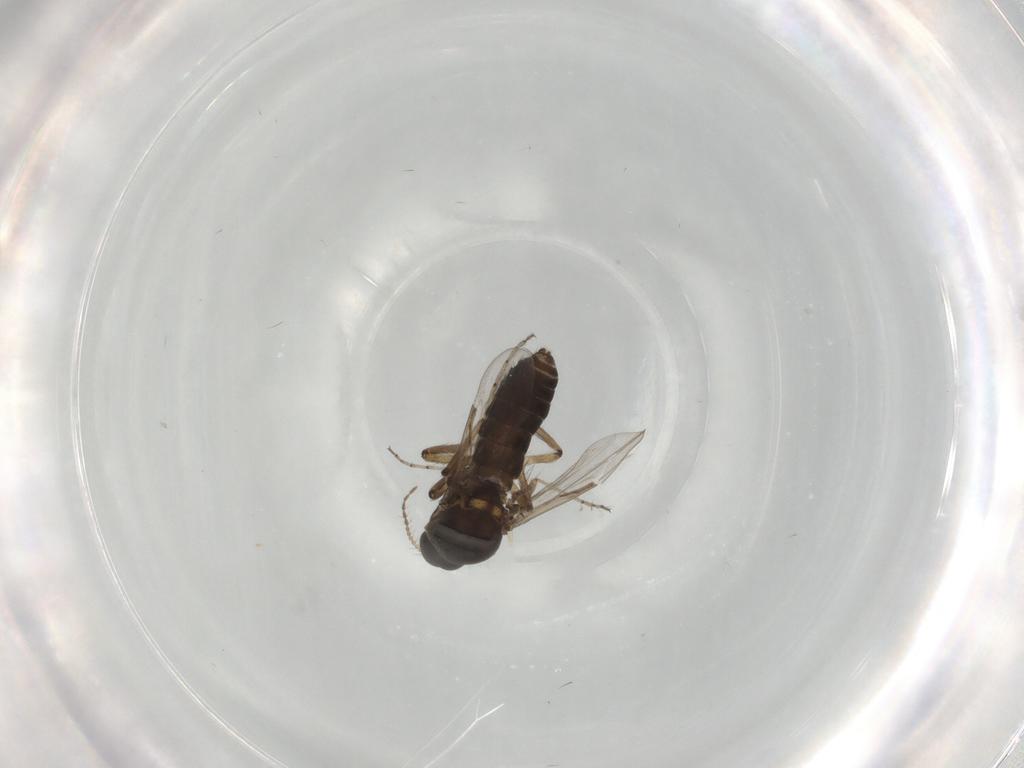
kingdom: Animalia
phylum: Arthropoda
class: Insecta
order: Diptera
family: Ceratopogonidae
